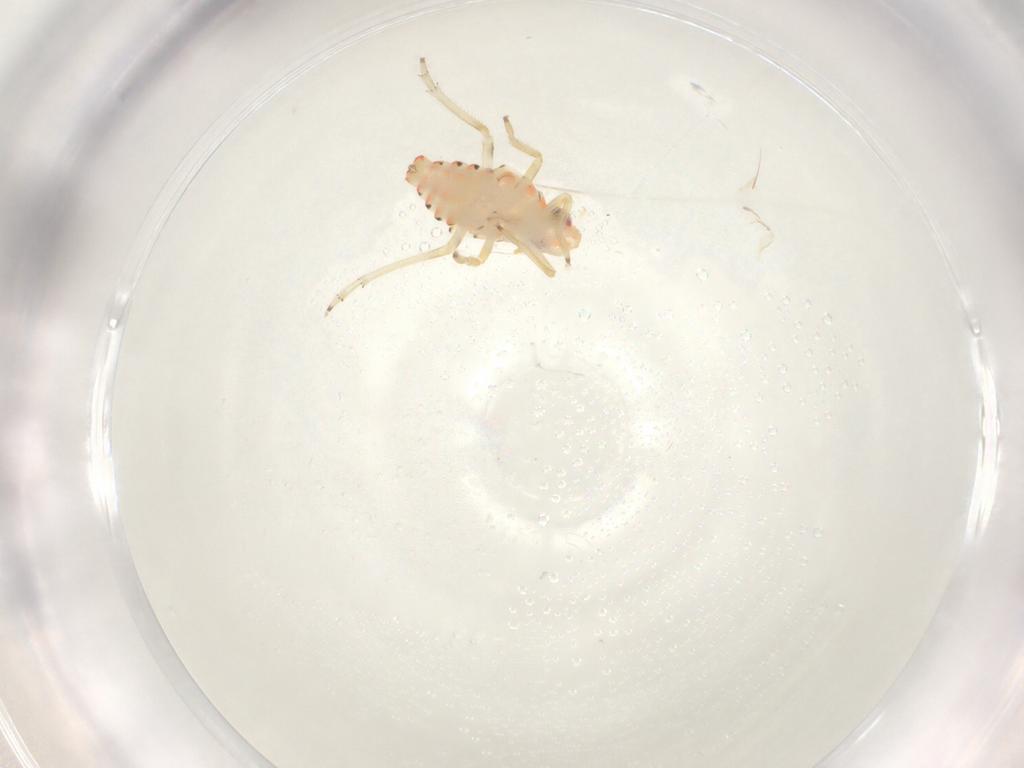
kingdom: Animalia
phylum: Arthropoda
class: Insecta
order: Hemiptera
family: Tropiduchidae
